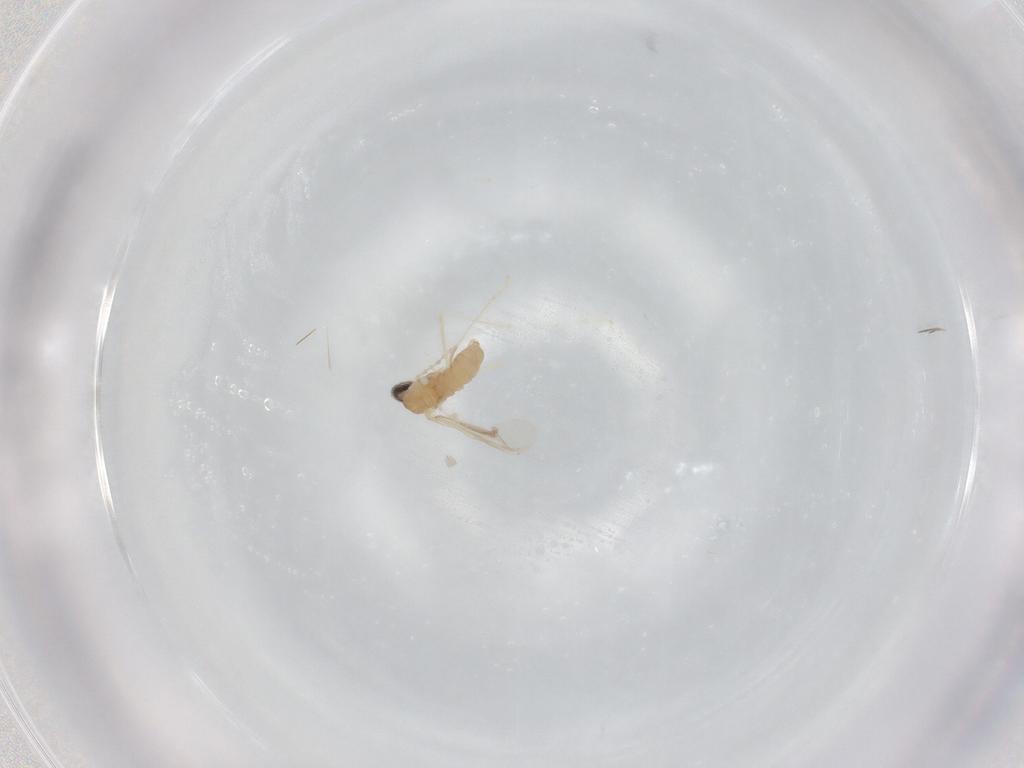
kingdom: Animalia
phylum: Arthropoda
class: Insecta
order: Diptera
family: Cecidomyiidae
